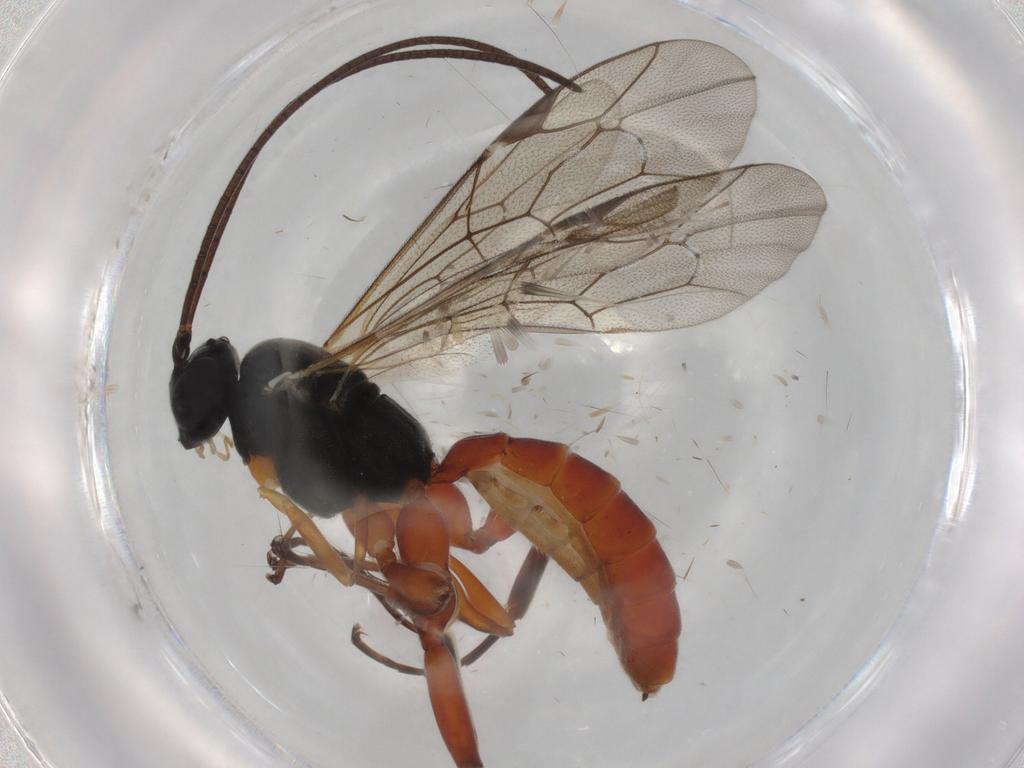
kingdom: Animalia
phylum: Arthropoda
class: Insecta
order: Hymenoptera
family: Ichneumonidae
